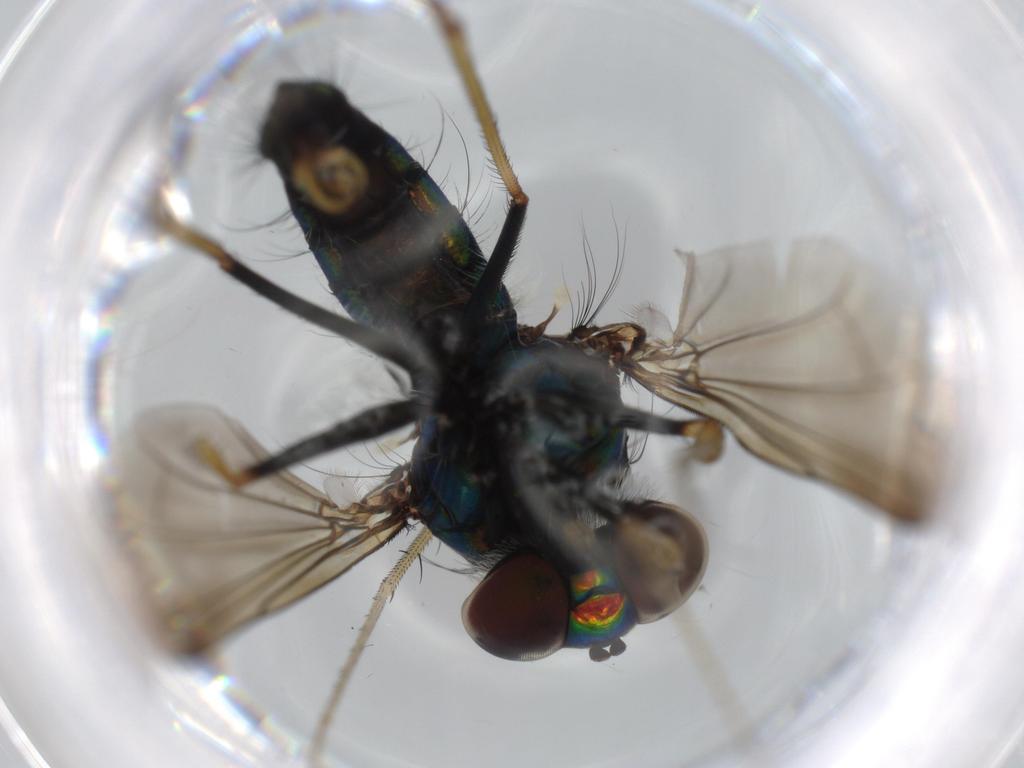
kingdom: Animalia
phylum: Arthropoda
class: Insecta
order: Diptera
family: Dolichopodidae
